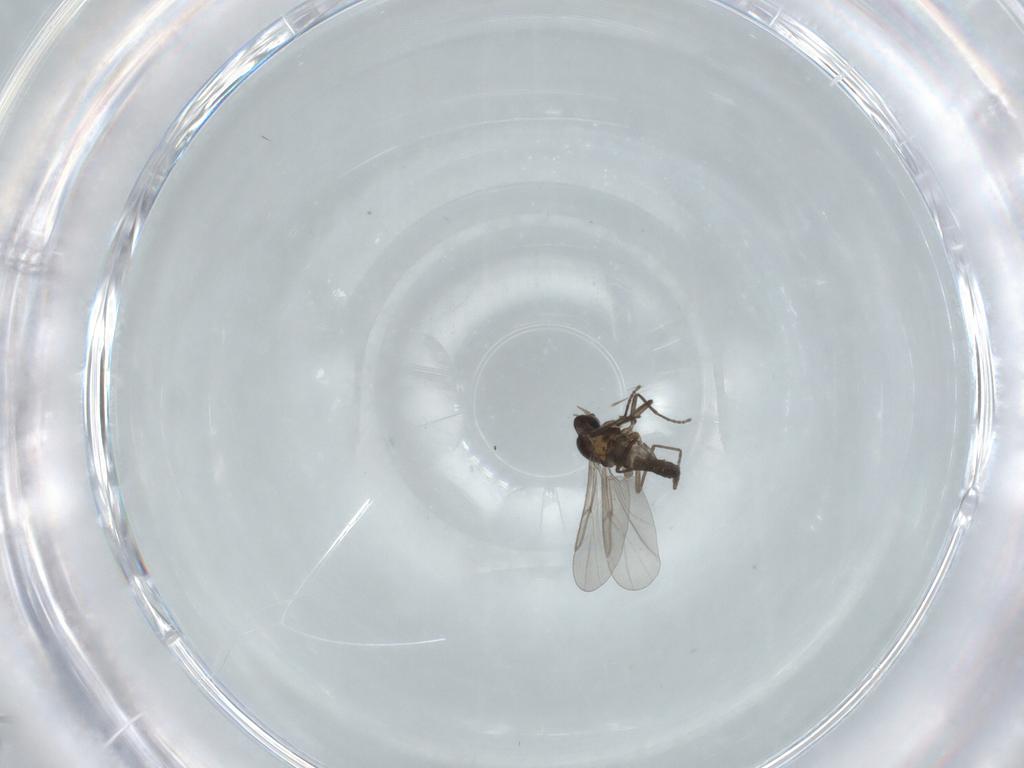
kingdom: Animalia
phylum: Arthropoda
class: Insecta
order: Diptera
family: Cecidomyiidae
